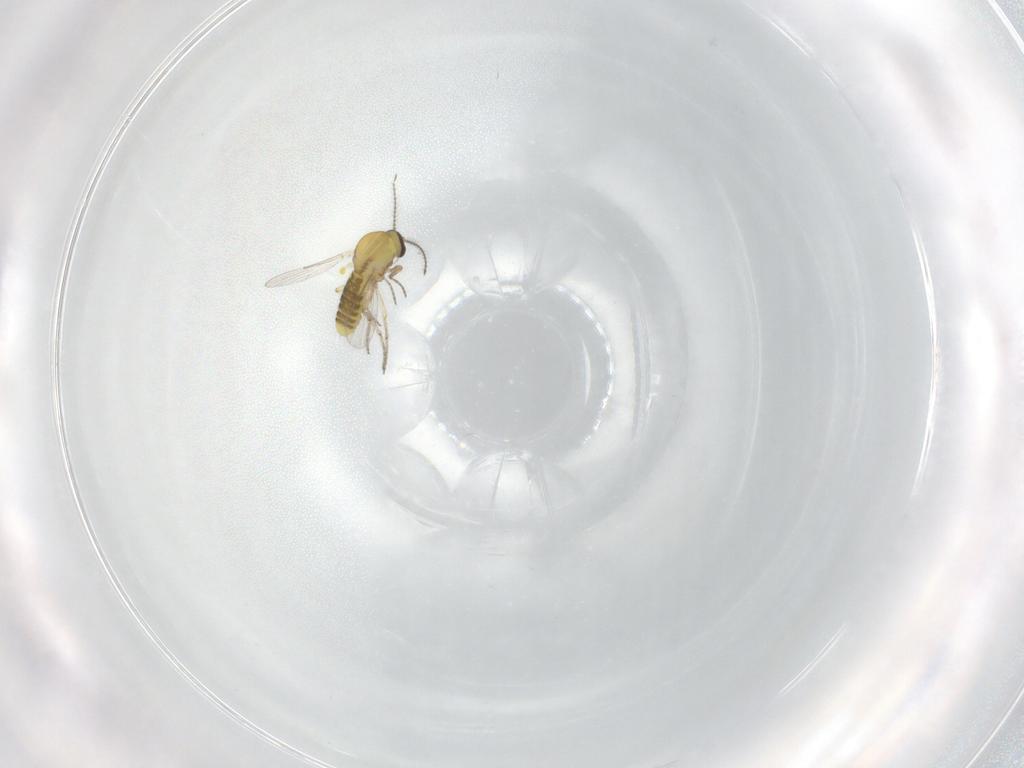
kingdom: Animalia
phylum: Arthropoda
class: Insecta
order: Diptera
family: Ceratopogonidae
